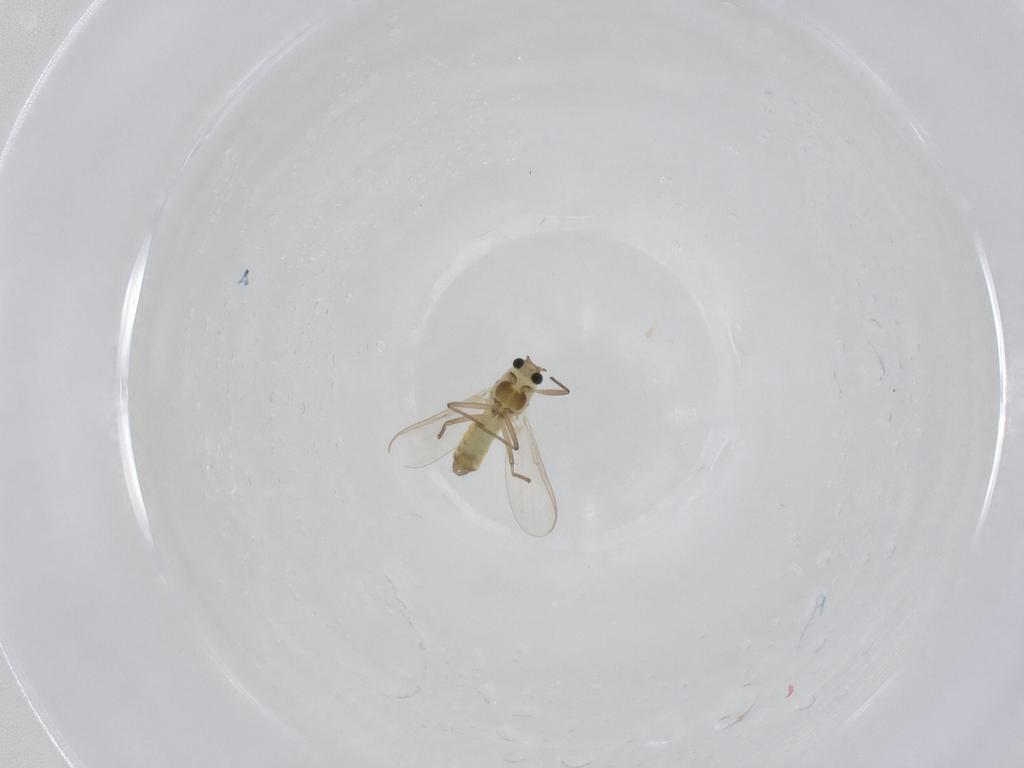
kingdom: Animalia
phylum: Arthropoda
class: Insecta
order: Diptera
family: Chironomidae
